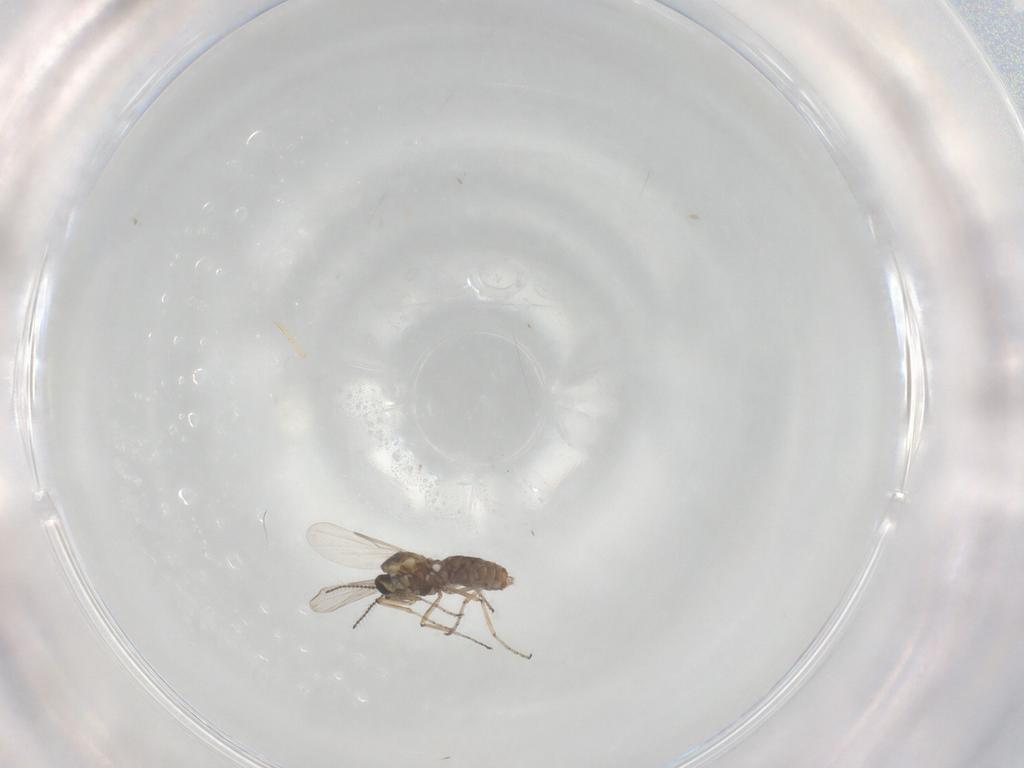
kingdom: Animalia
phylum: Arthropoda
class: Insecta
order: Diptera
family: Ceratopogonidae
